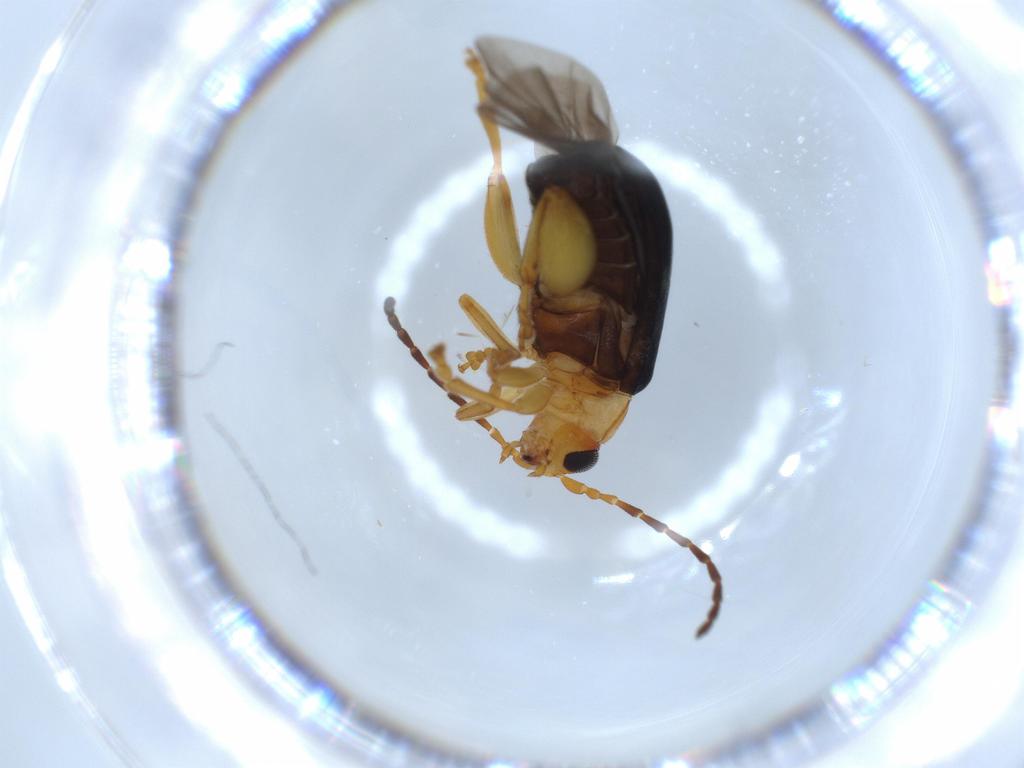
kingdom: Animalia
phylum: Arthropoda
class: Insecta
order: Coleoptera
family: Chrysomelidae
